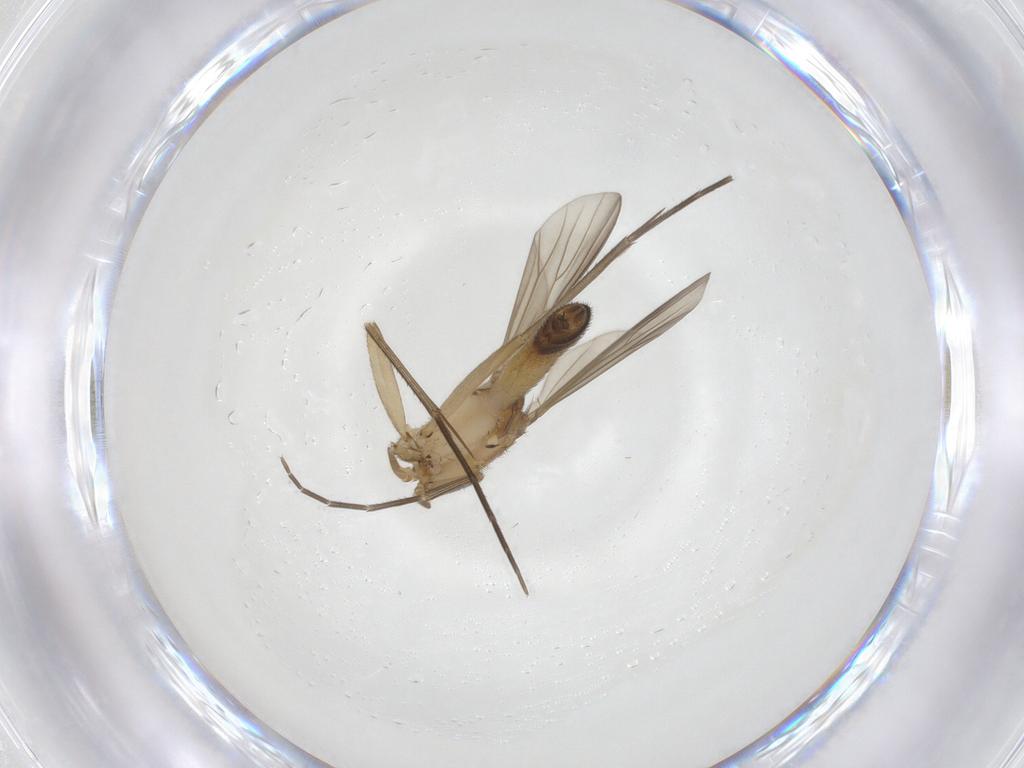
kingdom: Animalia
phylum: Arthropoda
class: Insecta
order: Diptera
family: Mycetophilidae
